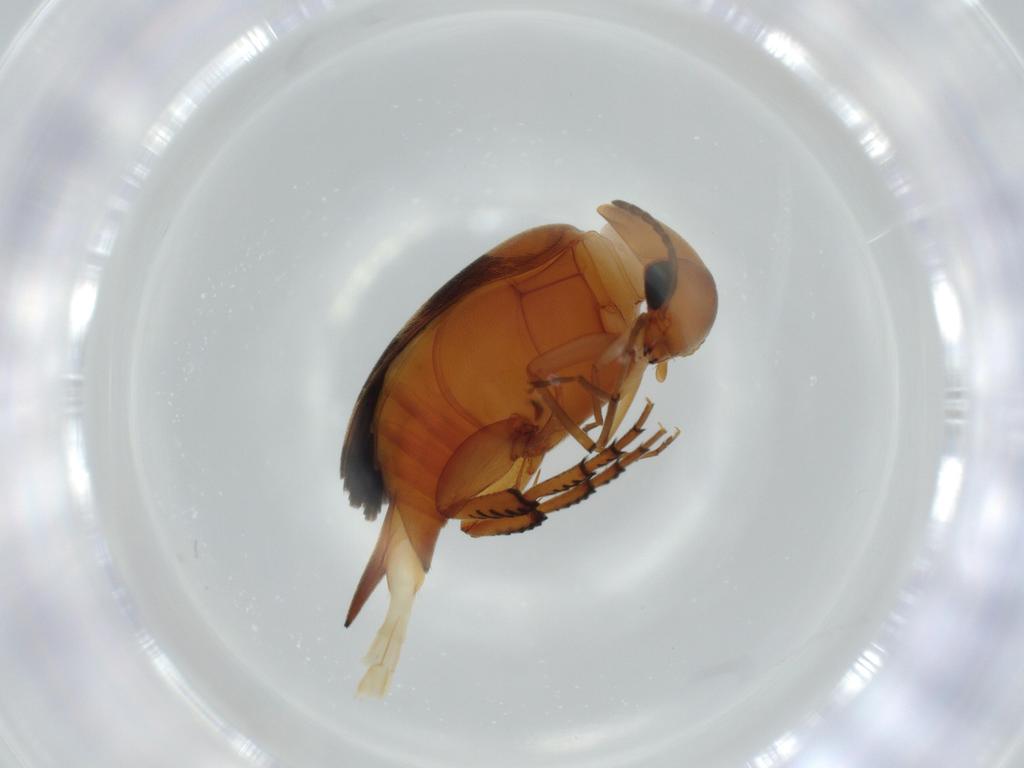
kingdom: Animalia
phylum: Arthropoda
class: Insecta
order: Coleoptera
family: Mordellidae
